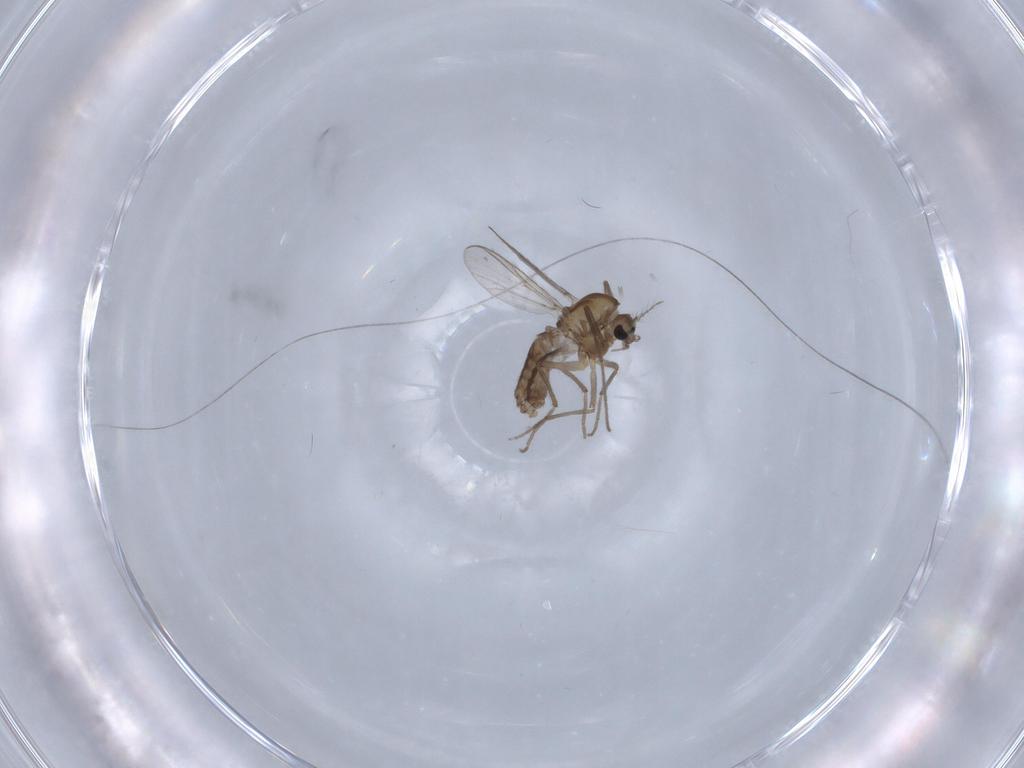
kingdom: Animalia
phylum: Arthropoda
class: Insecta
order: Diptera
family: Chironomidae
